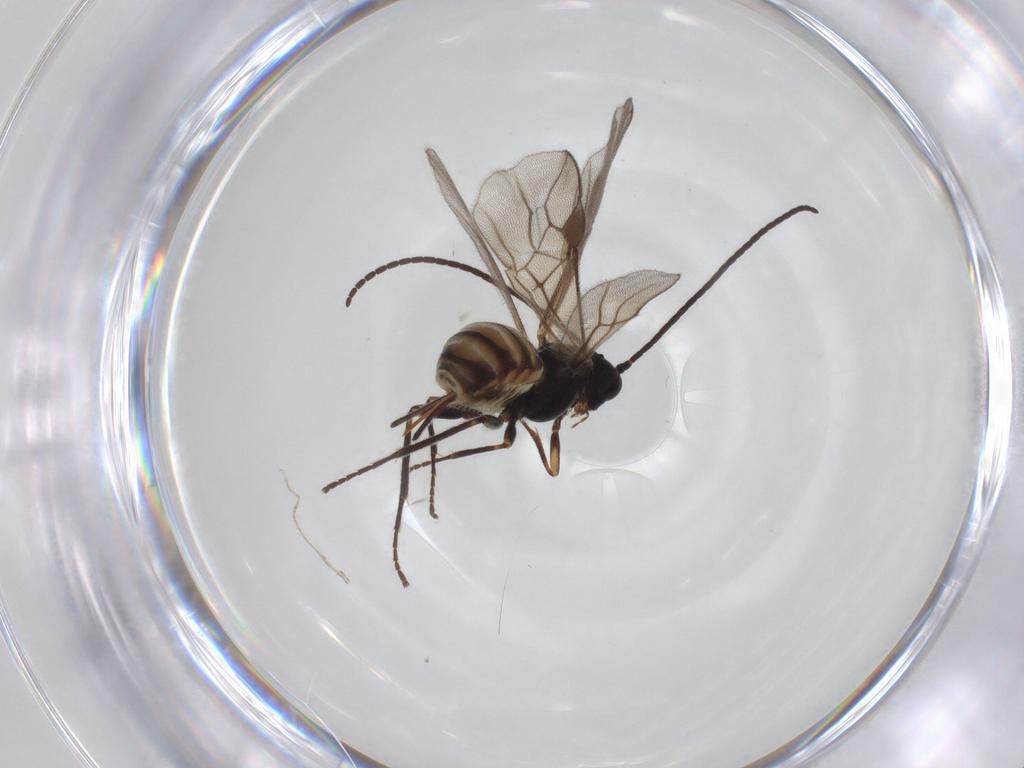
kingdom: Animalia
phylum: Arthropoda
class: Insecta
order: Hymenoptera
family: Braconidae
